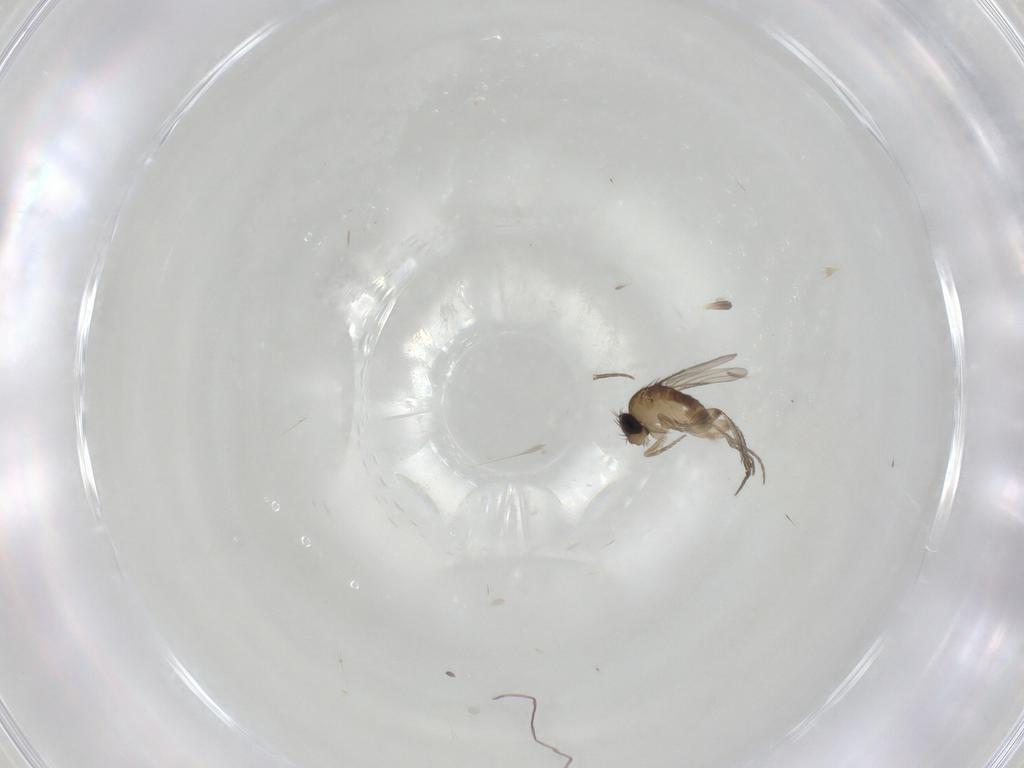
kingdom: Animalia
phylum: Arthropoda
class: Insecta
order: Diptera
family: Phoridae
